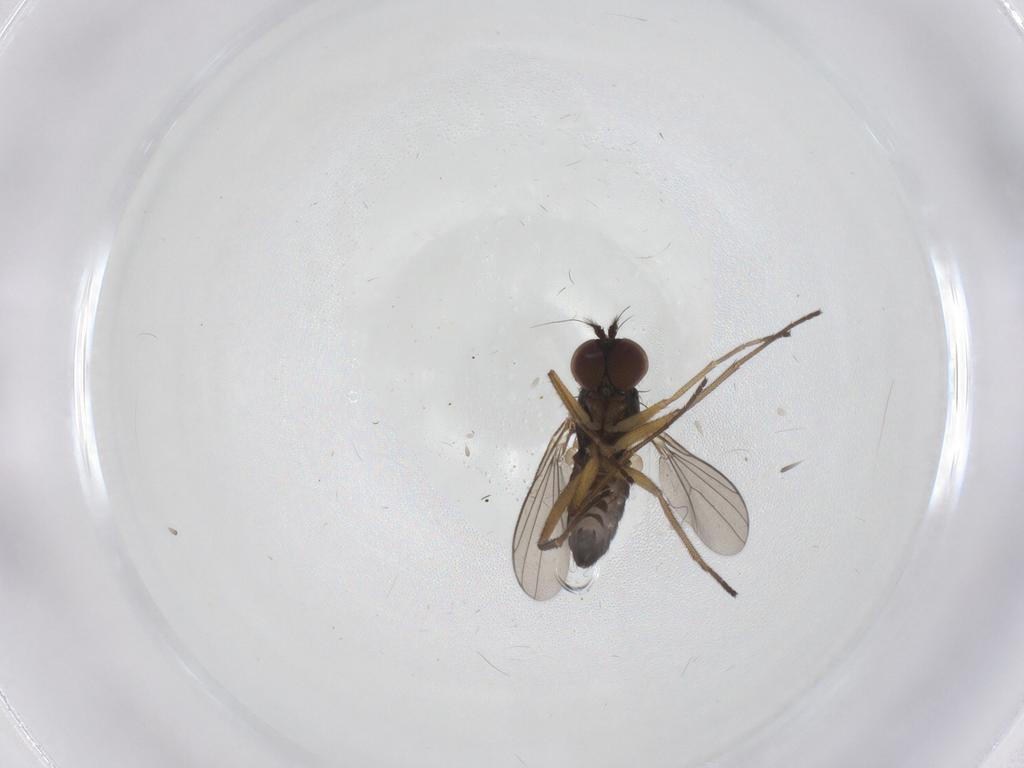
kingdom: Animalia
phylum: Arthropoda
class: Insecta
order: Diptera
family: Dolichopodidae
